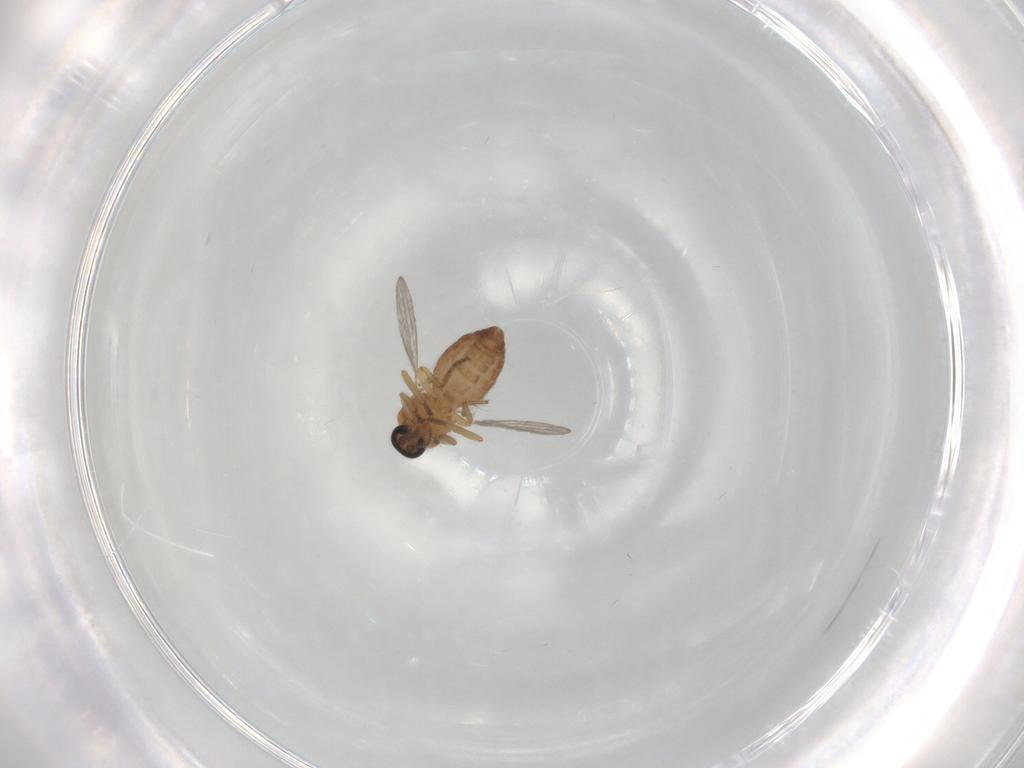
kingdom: Animalia
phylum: Arthropoda
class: Insecta
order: Diptera
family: Ceratopogonidae
